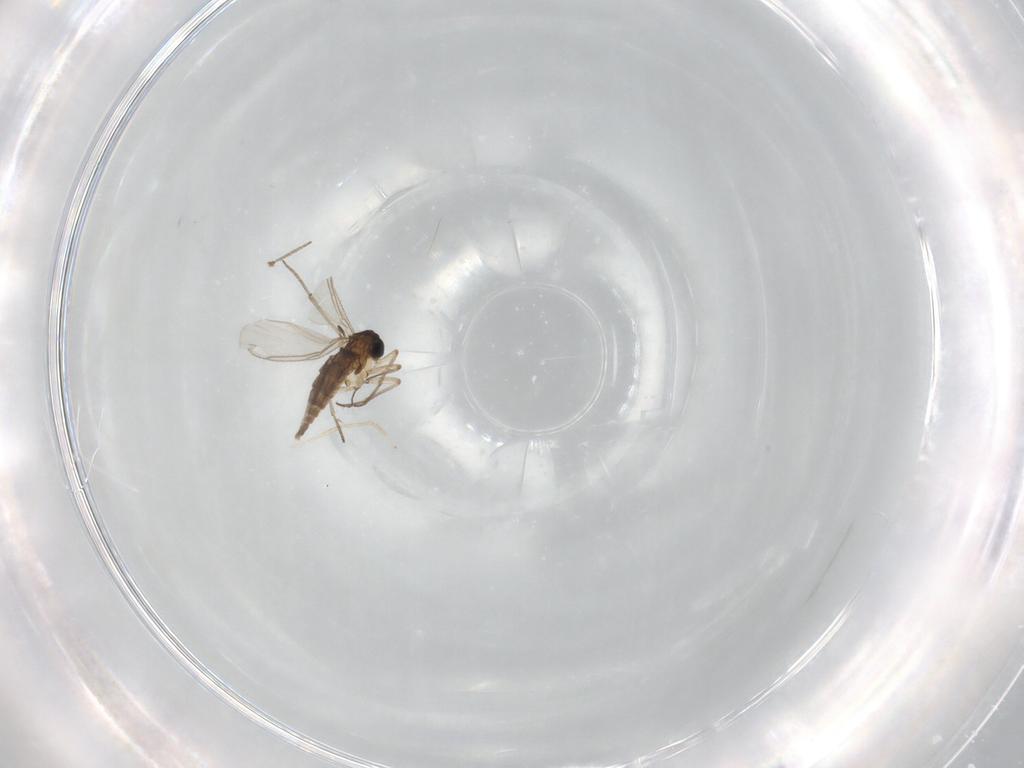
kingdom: Animalia
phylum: Arthropoda
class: Insecta
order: Diptera
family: Sciaridae
